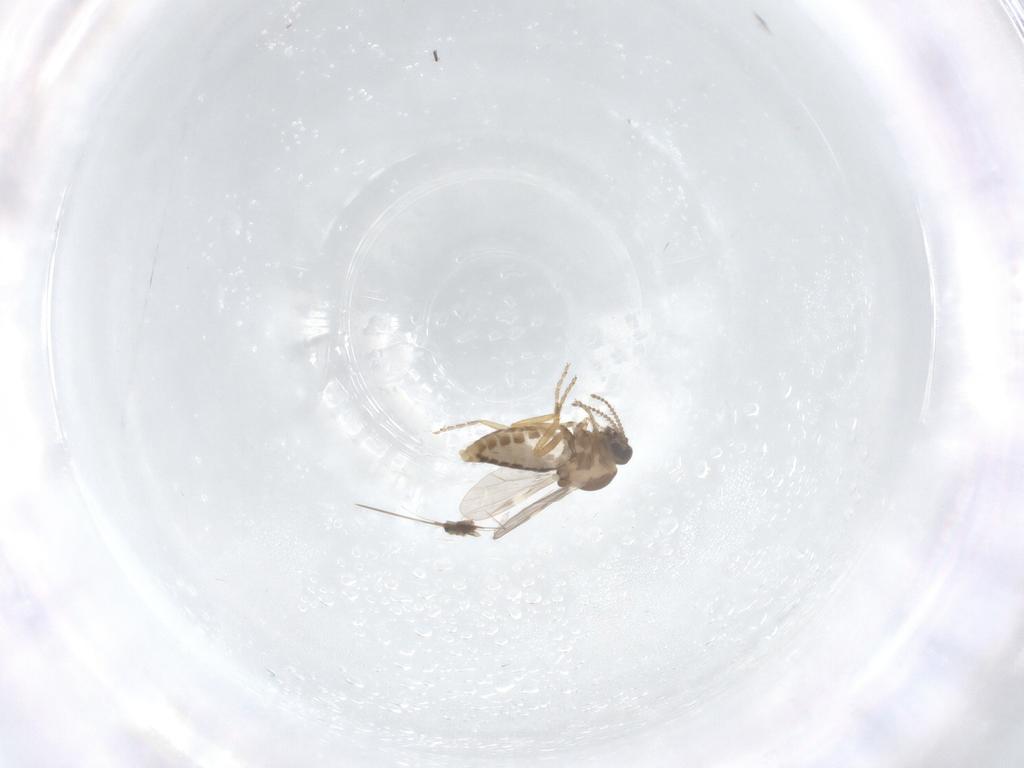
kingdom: Animalia
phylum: Arthropoda
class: Insecta
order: Diptera
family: Ceratopogonidae
